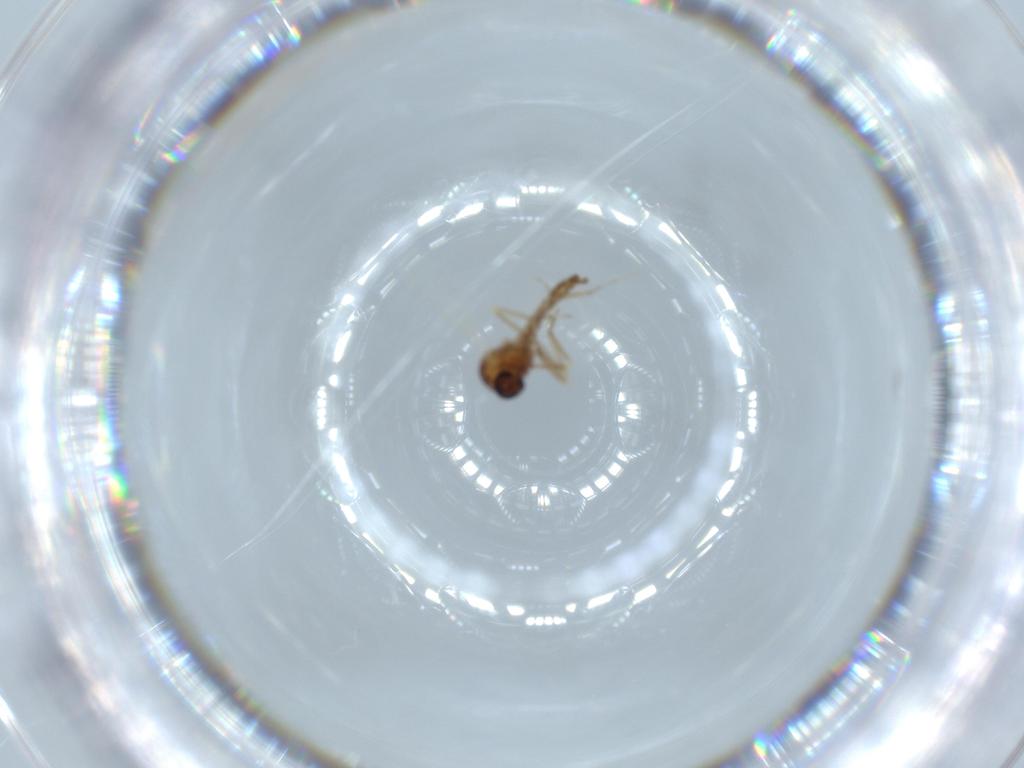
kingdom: Animalia
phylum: Arthropoda
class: Insecta
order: Diptera
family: Ceratopogonidae
